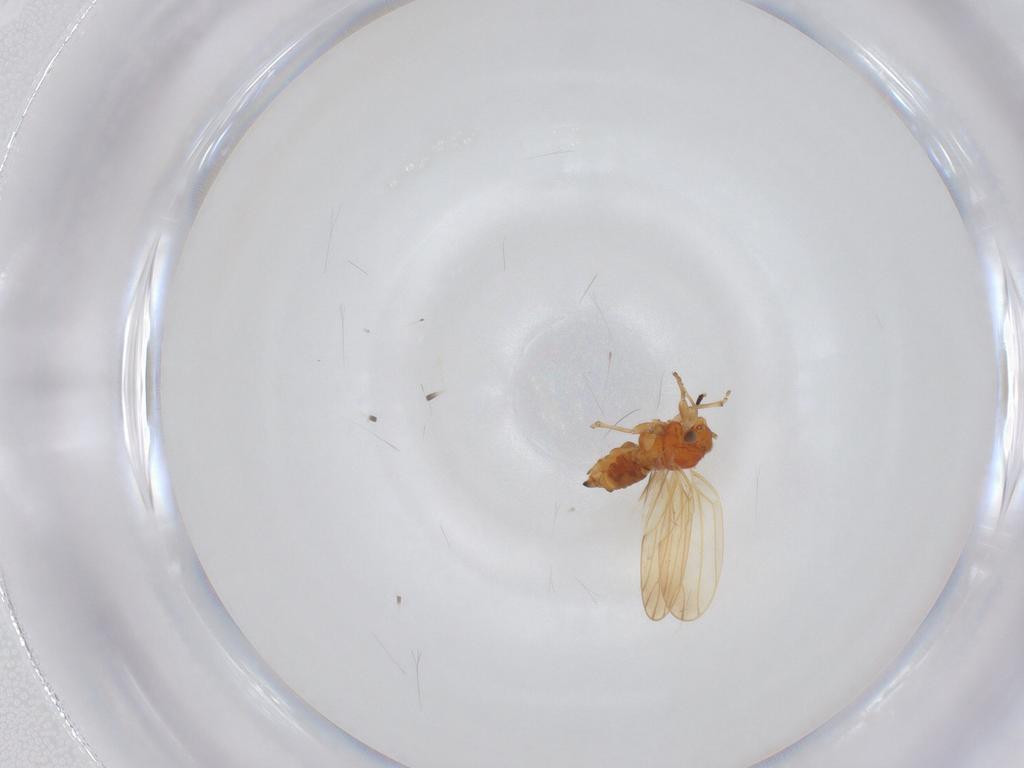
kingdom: Animalia
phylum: Arthropoda
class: Insecta
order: Hemiptera
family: Aphalaridae
